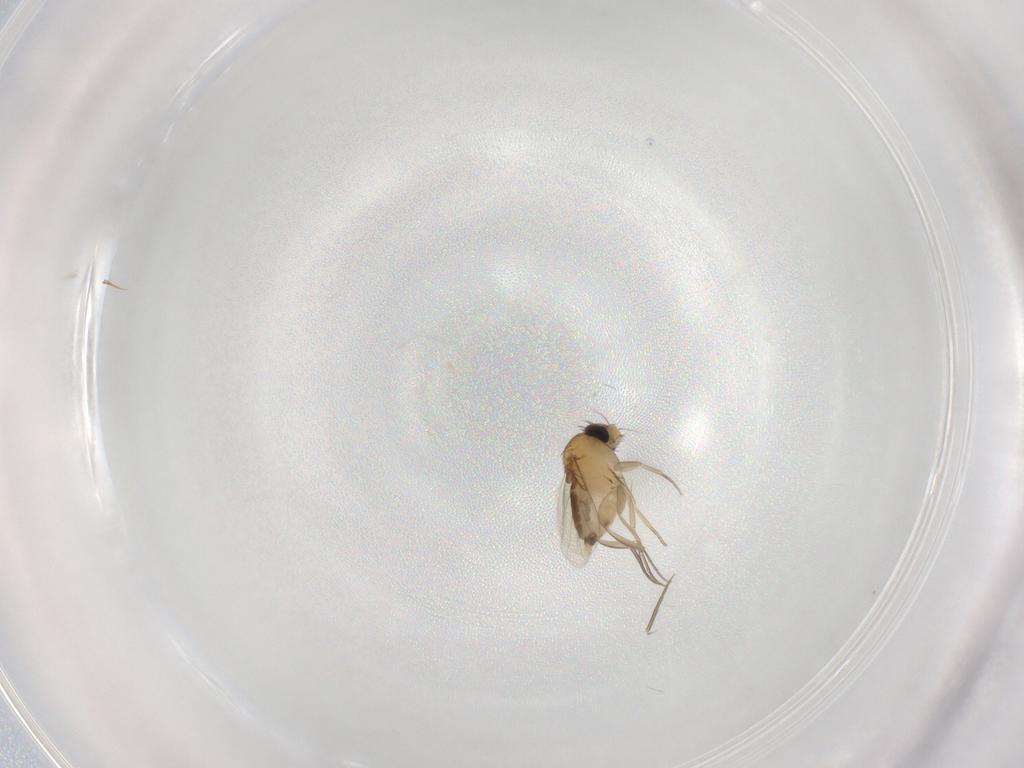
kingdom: Animalia
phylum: Arthropoda
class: Insecta
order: Diptera
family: Phoridae
